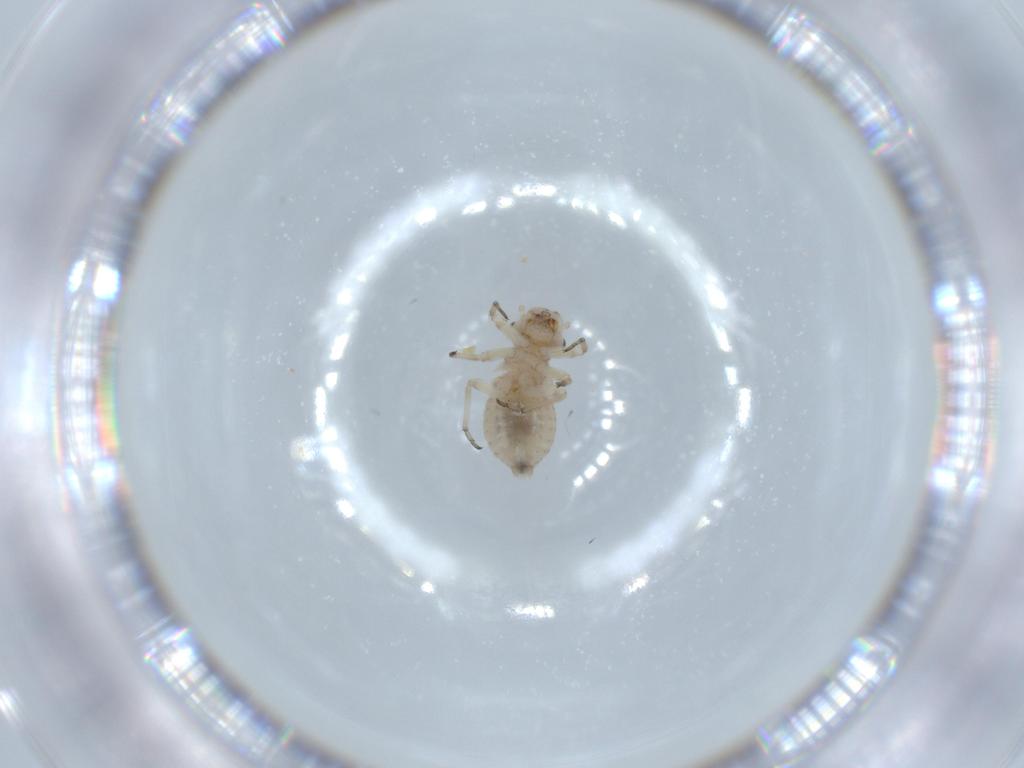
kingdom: Animalia
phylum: Arthropoda
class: Insecta
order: Psocodea
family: Psocidae
